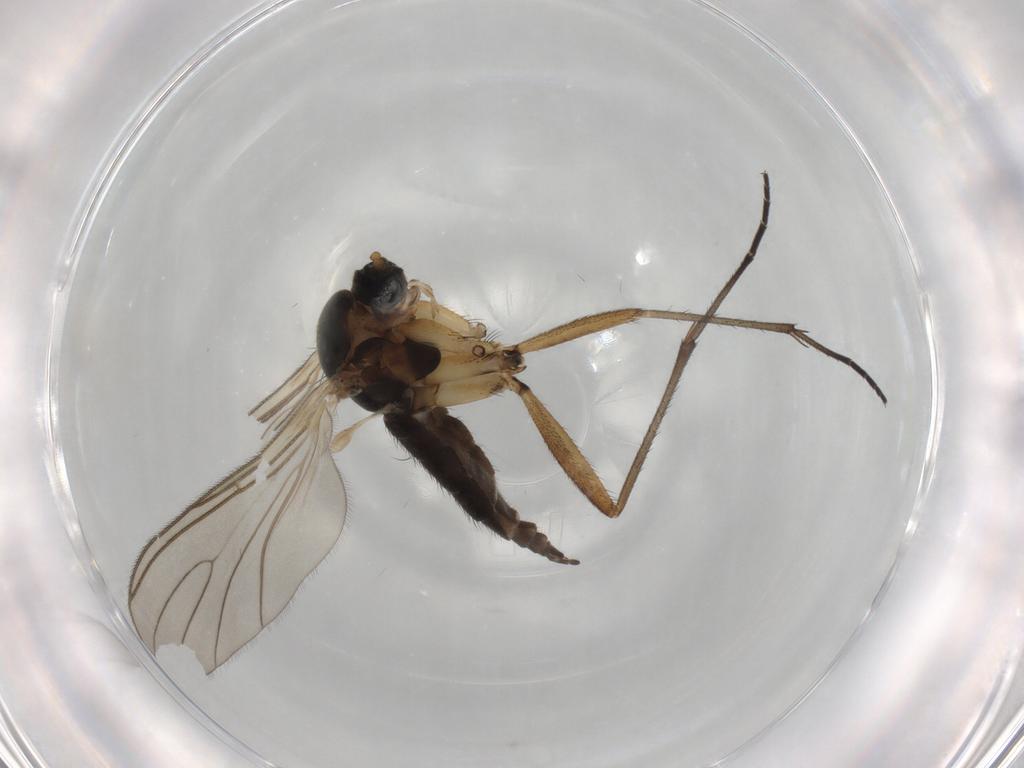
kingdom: Animalia
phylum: Arthropoda
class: Insecta
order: Diptera
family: Sciaridae
